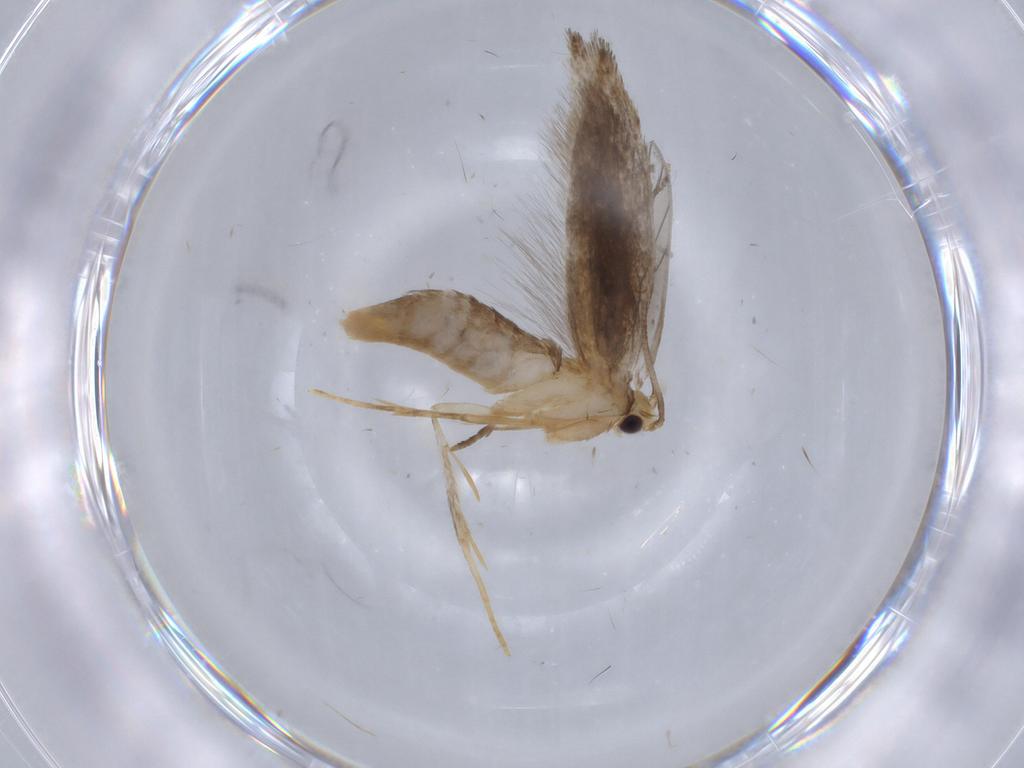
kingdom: Animalia
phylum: Arthropoda
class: Insecta
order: Lepidoptera
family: Tineidae
